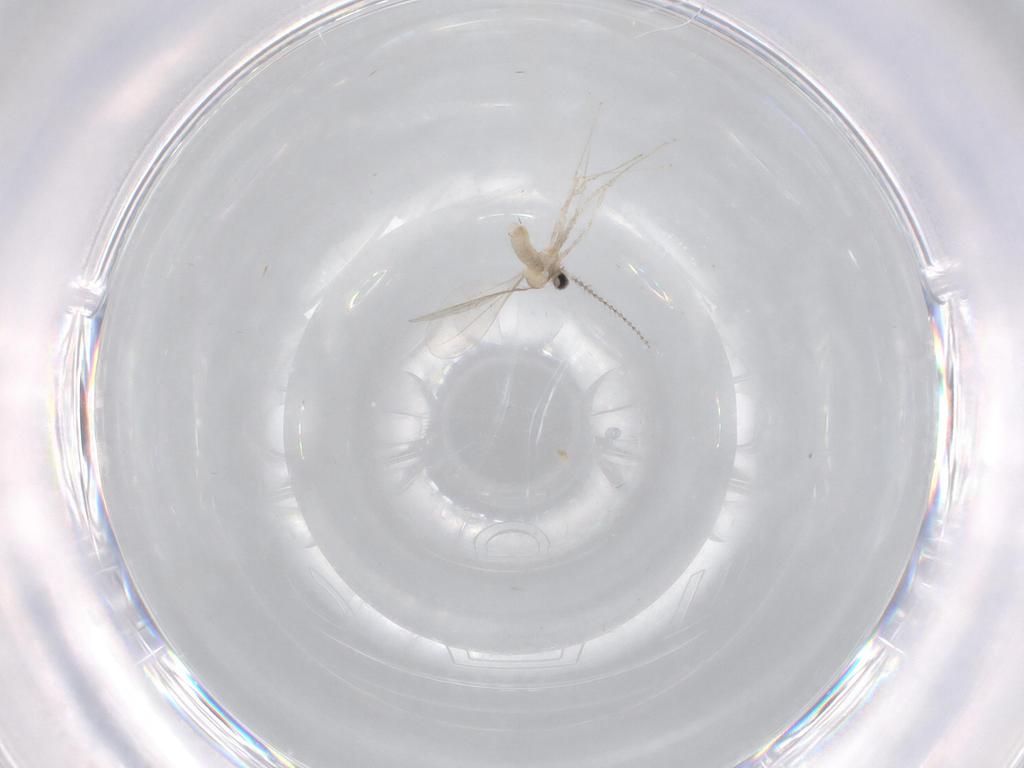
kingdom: Animalia
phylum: Arthropoda
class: Insecta
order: Diptera
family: Cecidomyiidae
